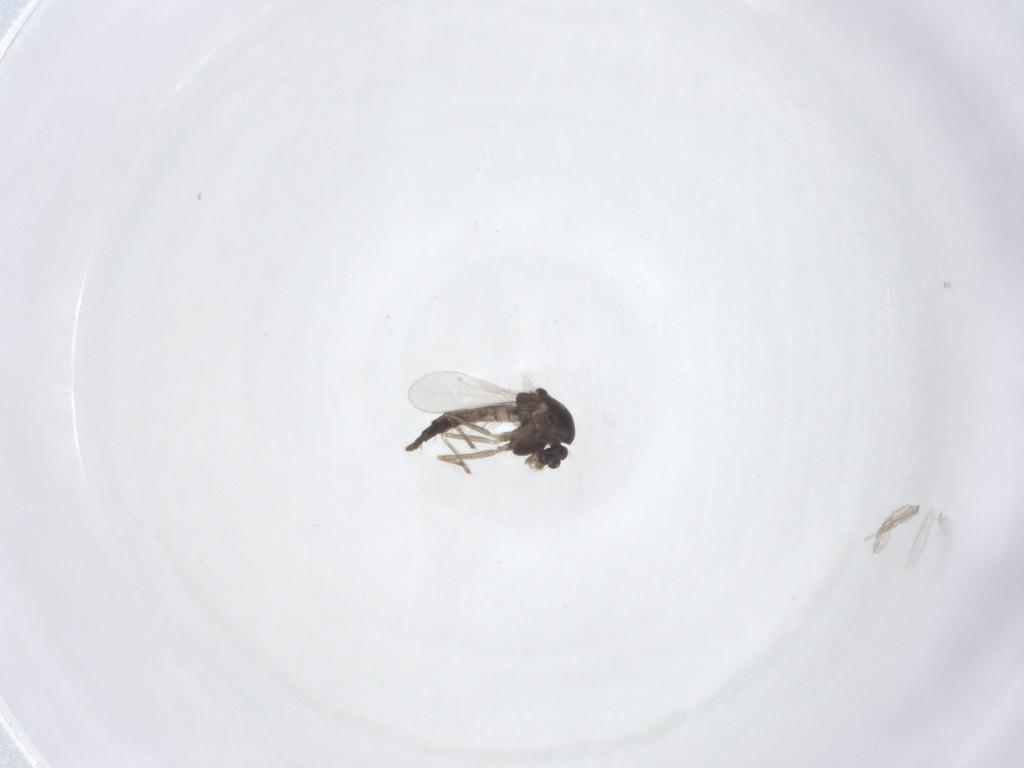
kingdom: Animalia
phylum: Arthropoda
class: Insecta
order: Diptera
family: Chironomidae
